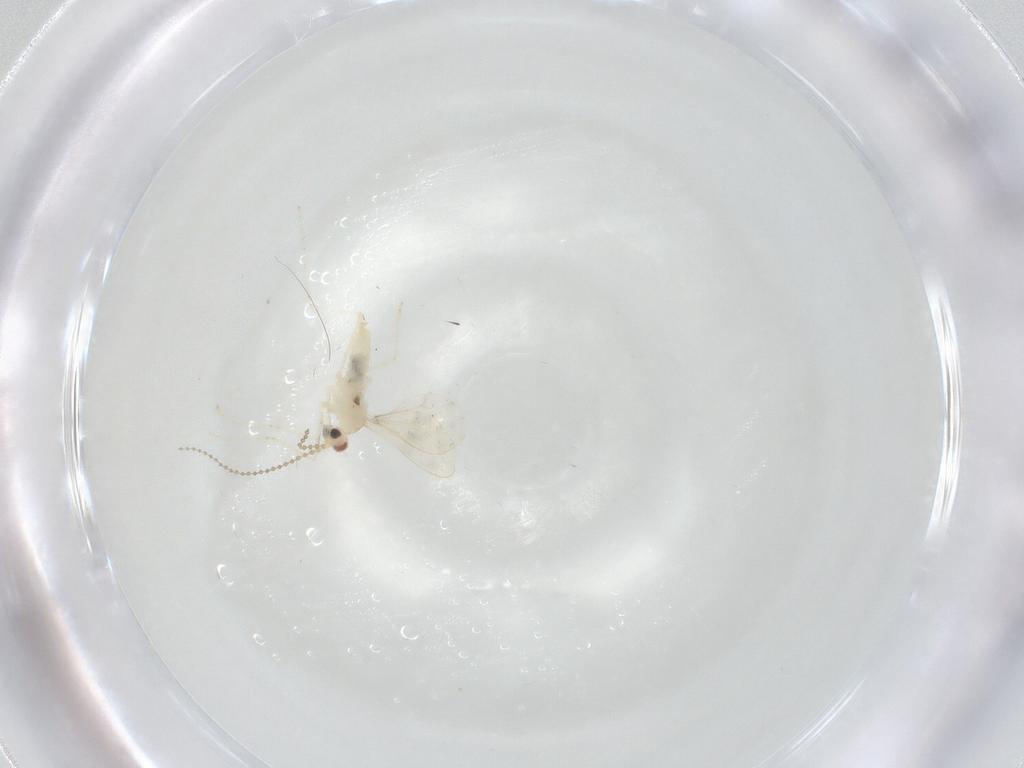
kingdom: Animalia
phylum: Arthropoda
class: Insecta
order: Diptera
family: Cecidomyiidae
